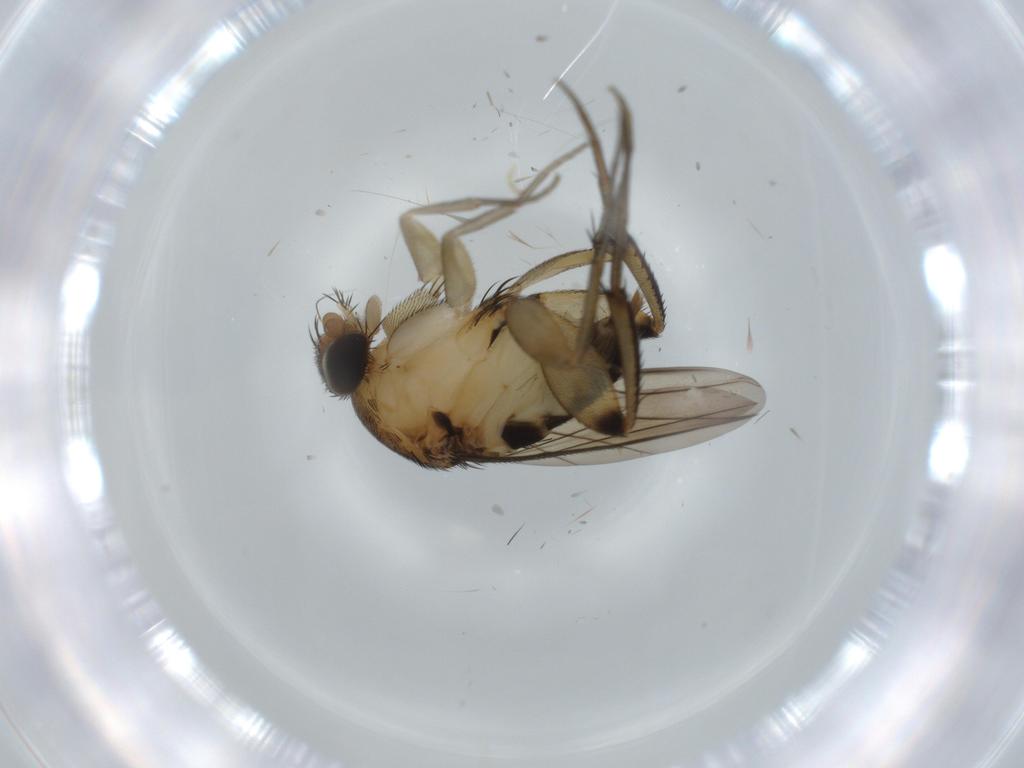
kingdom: Animalia
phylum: Arthropoda
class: Insecta
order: Diptera
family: Phoridae
